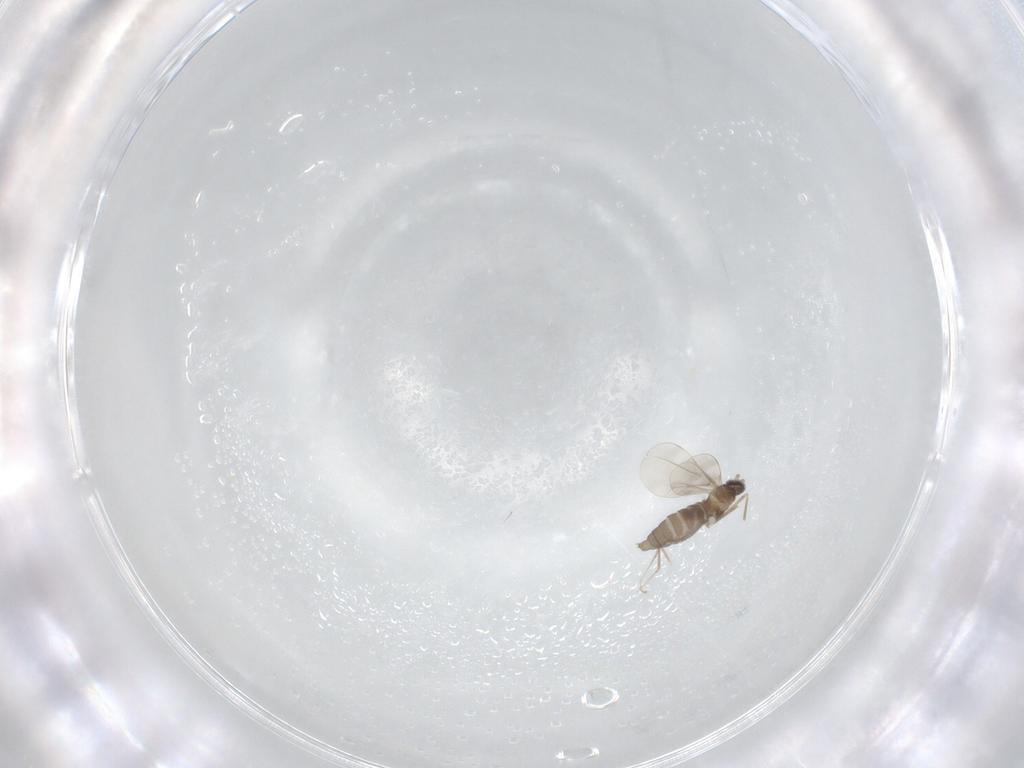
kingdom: Animalia
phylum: Arthropoda
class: Insecta
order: Diptera
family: Cecidomyiidae
